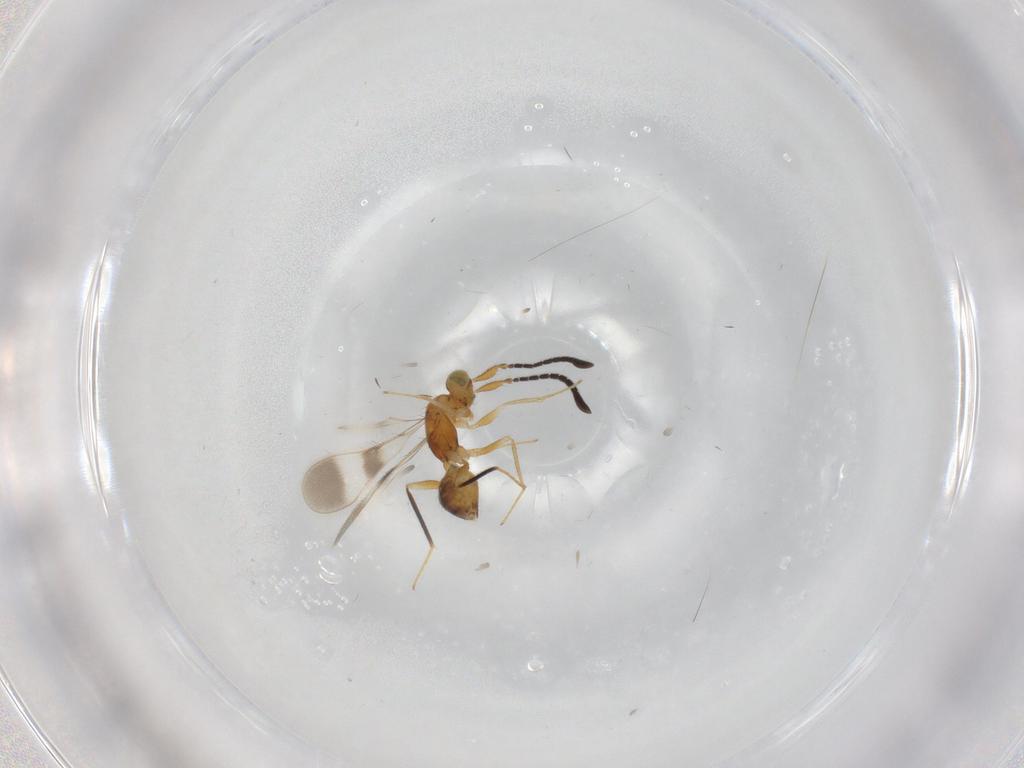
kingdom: Animalia
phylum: Arthropoda
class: Insecta
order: Hymenoptera
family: Mymaridae
